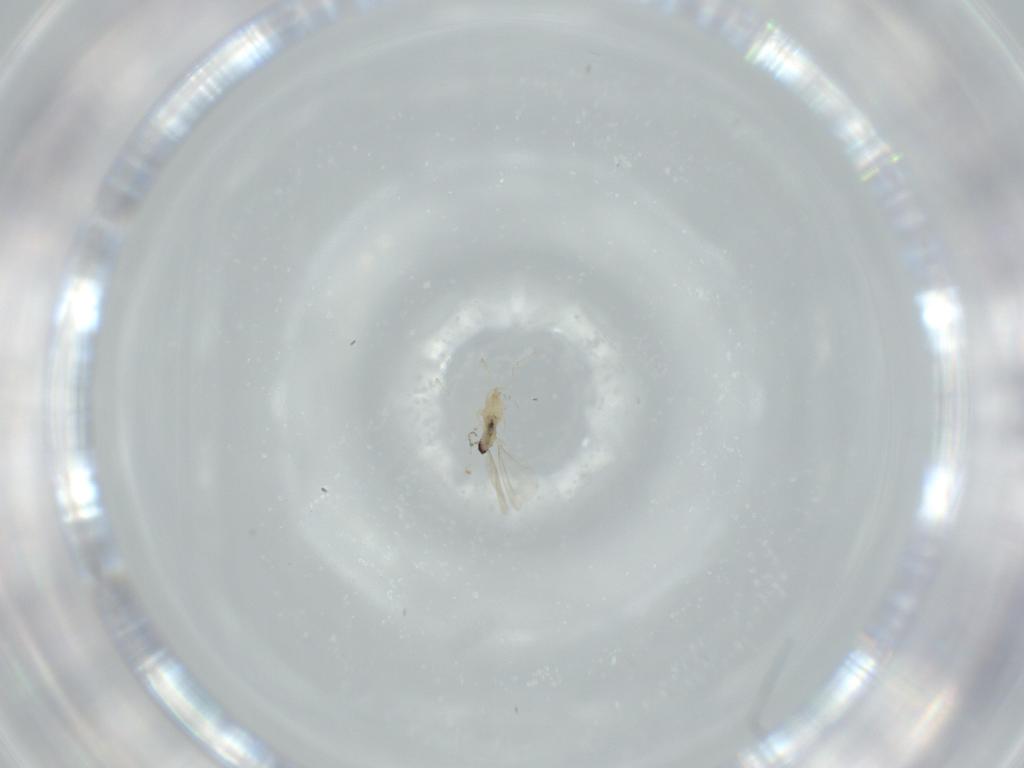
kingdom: Animalia
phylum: Arthropoda
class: Insecta
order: Diptera
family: Cecidomyiidae
